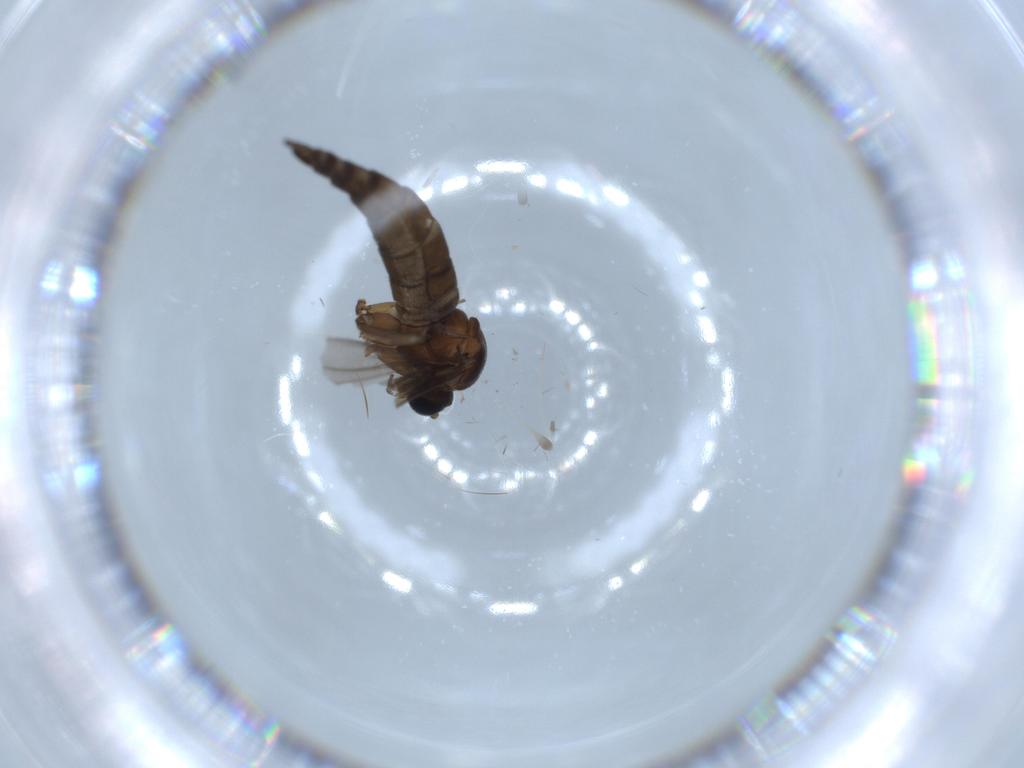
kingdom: Animalia
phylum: Arthropoda
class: Insecta
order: Diptera
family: Sciaridae
